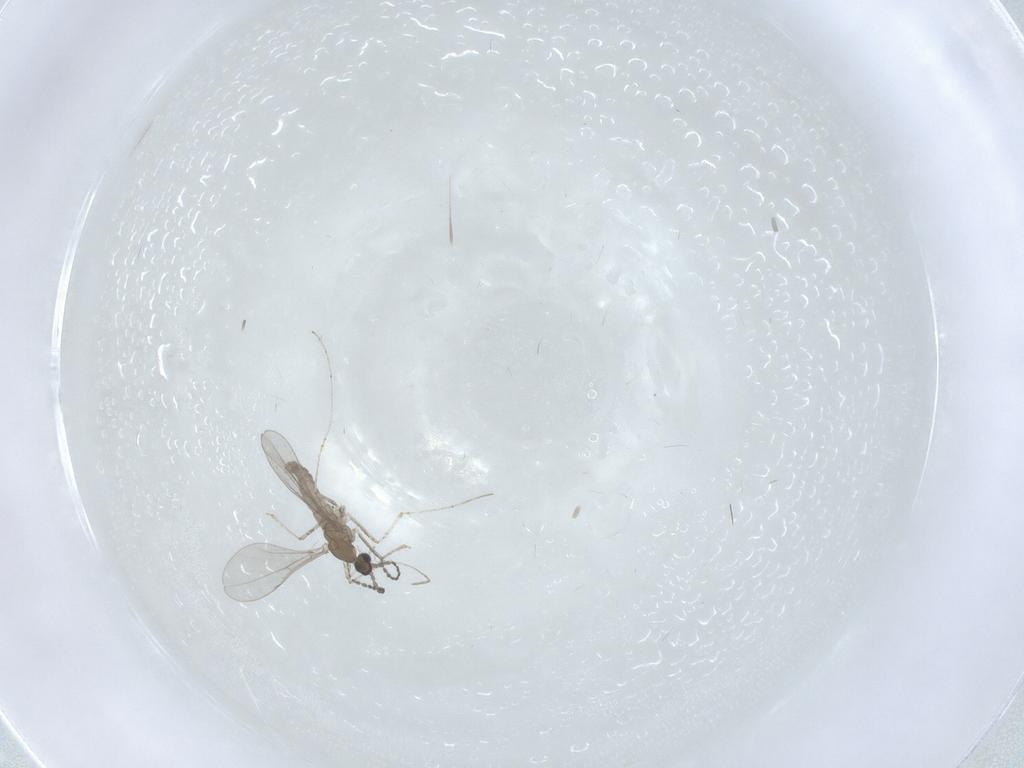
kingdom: Animalia
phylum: Arthropoda
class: Insecta
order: Diptera
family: Cecidomyiidae
